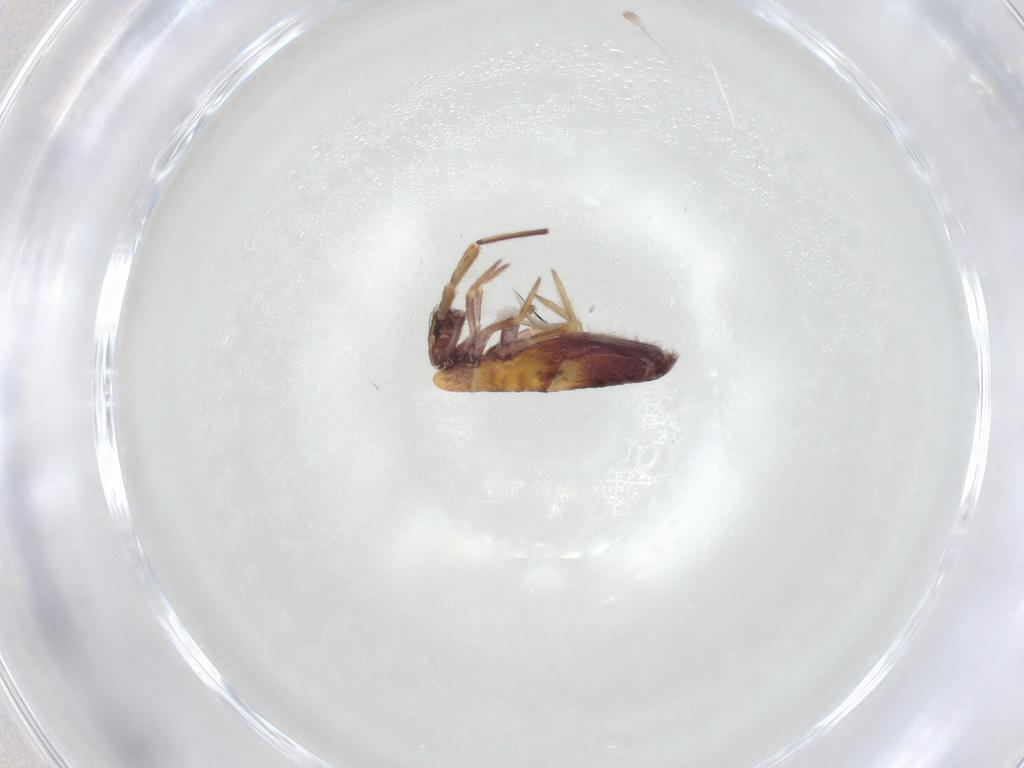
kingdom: Animalia
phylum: Arthropoda
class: Collembola
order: Entomobryomorpha
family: Entomobryidae
